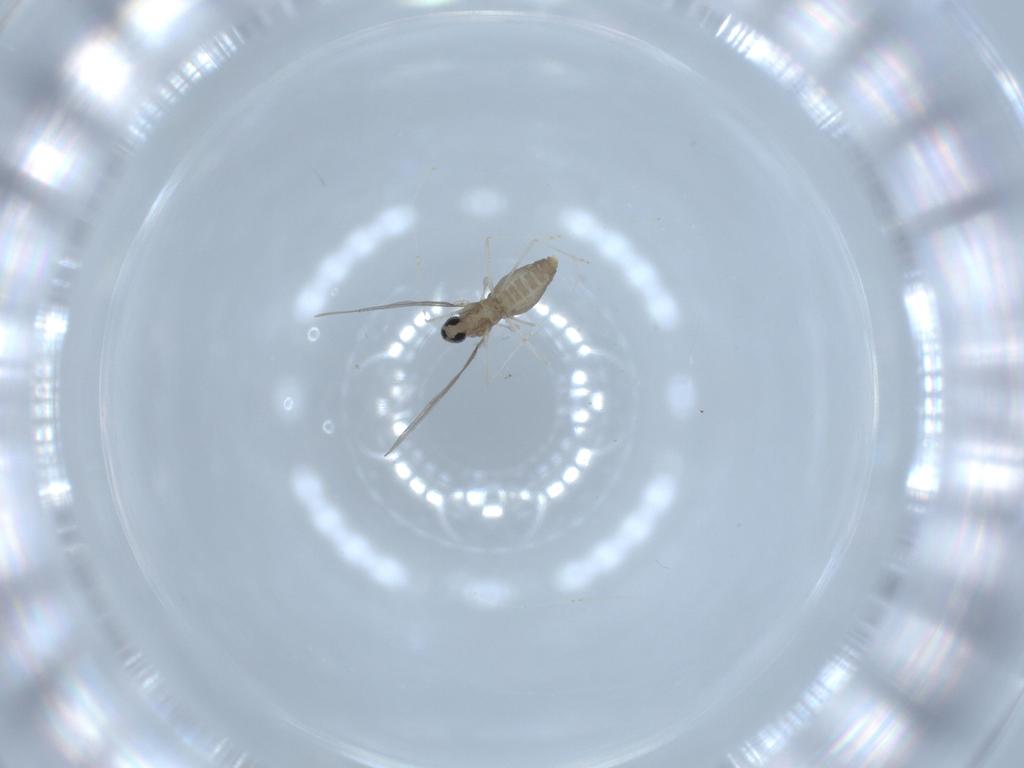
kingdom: Animalia
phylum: Arthropoda
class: Insecta
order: Diptera
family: Cecidomyiidae
